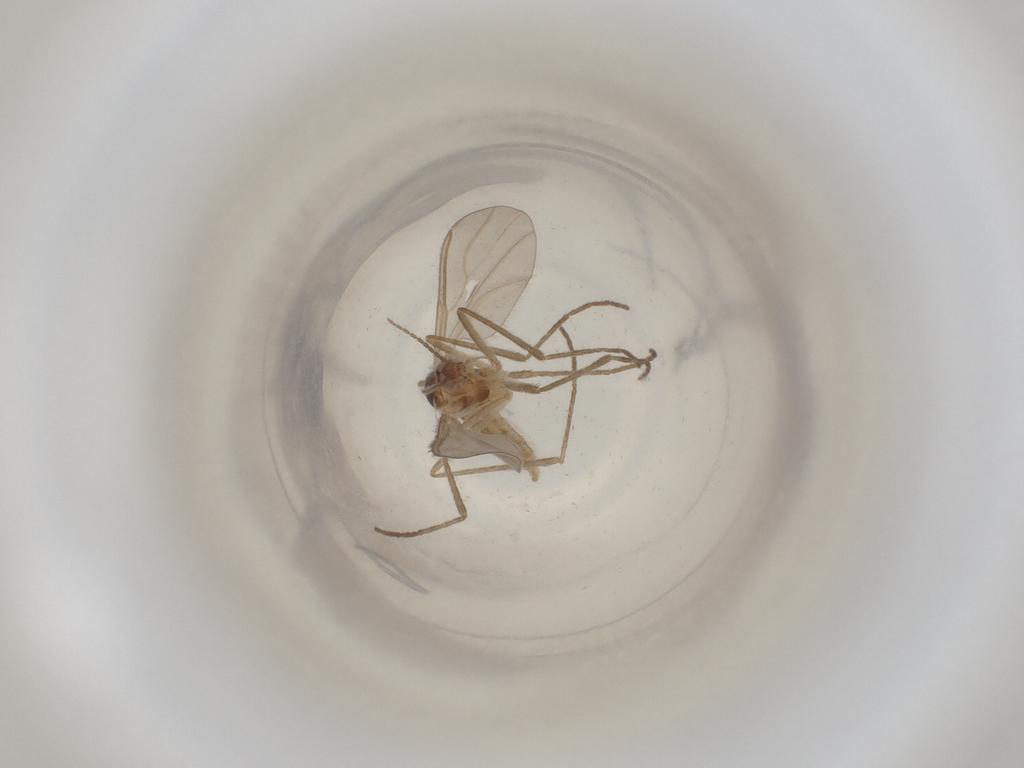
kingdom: Animalia
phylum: Arthropoda
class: Insecta
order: Diptera
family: Cecidomyiidae
